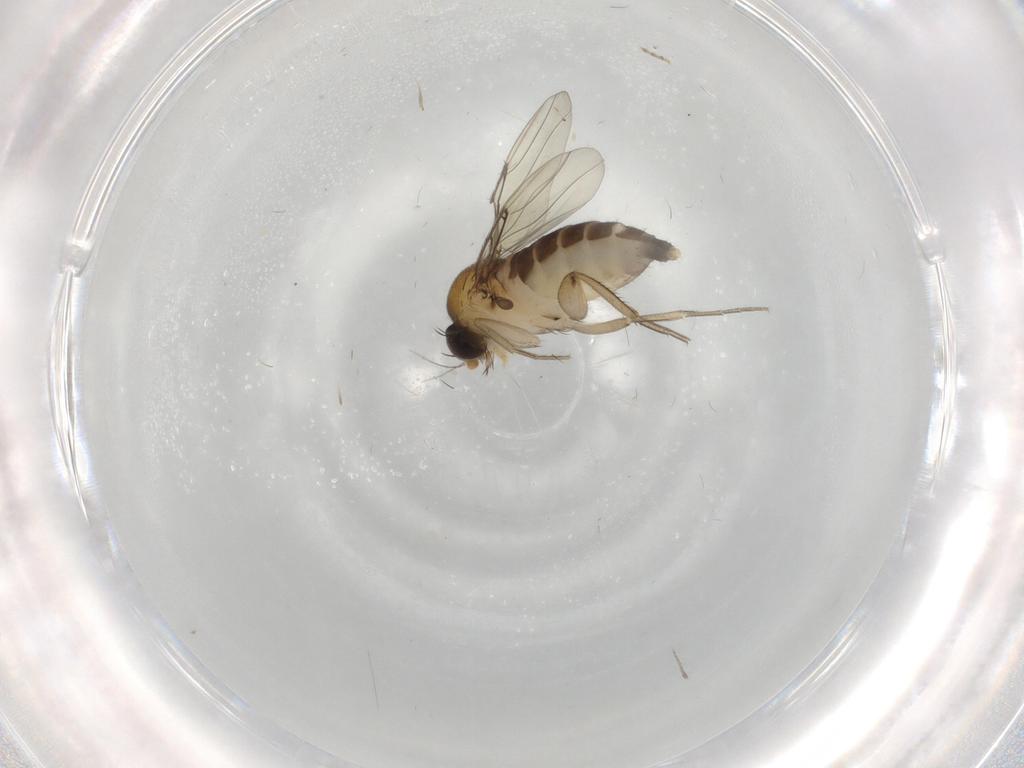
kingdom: Animalia
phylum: Arthropoda
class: Insecta
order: Diptera
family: Phoridae
